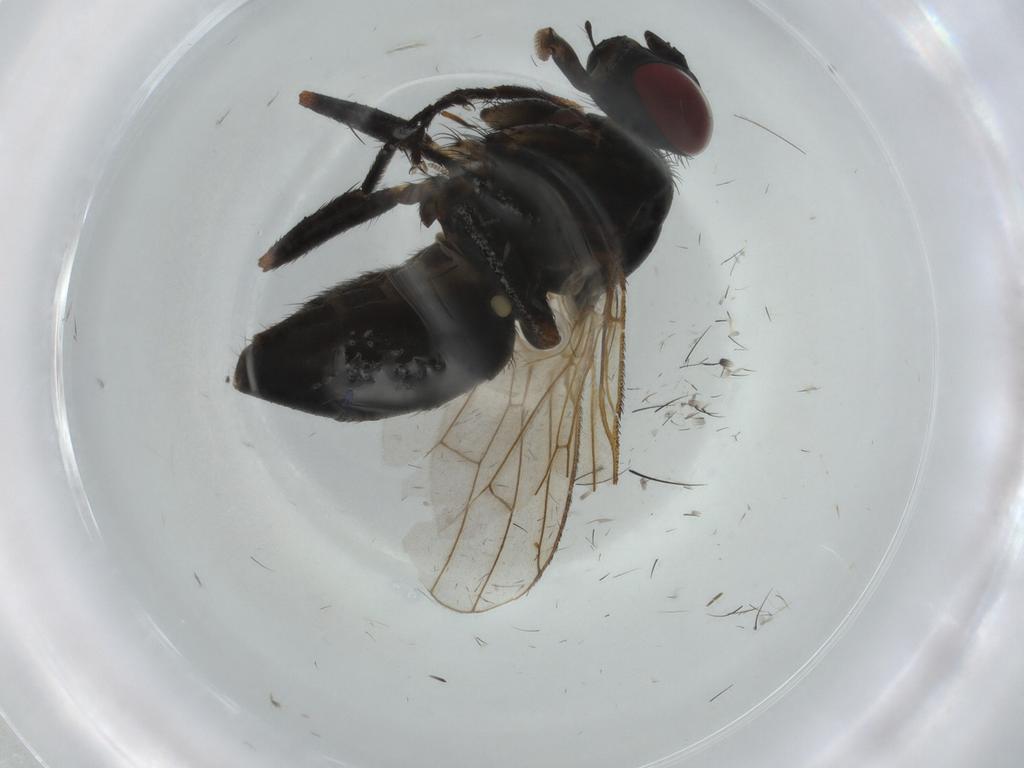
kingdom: Animalia
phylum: Arthropoda
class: Insecta
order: Diptera
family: Muscidae
